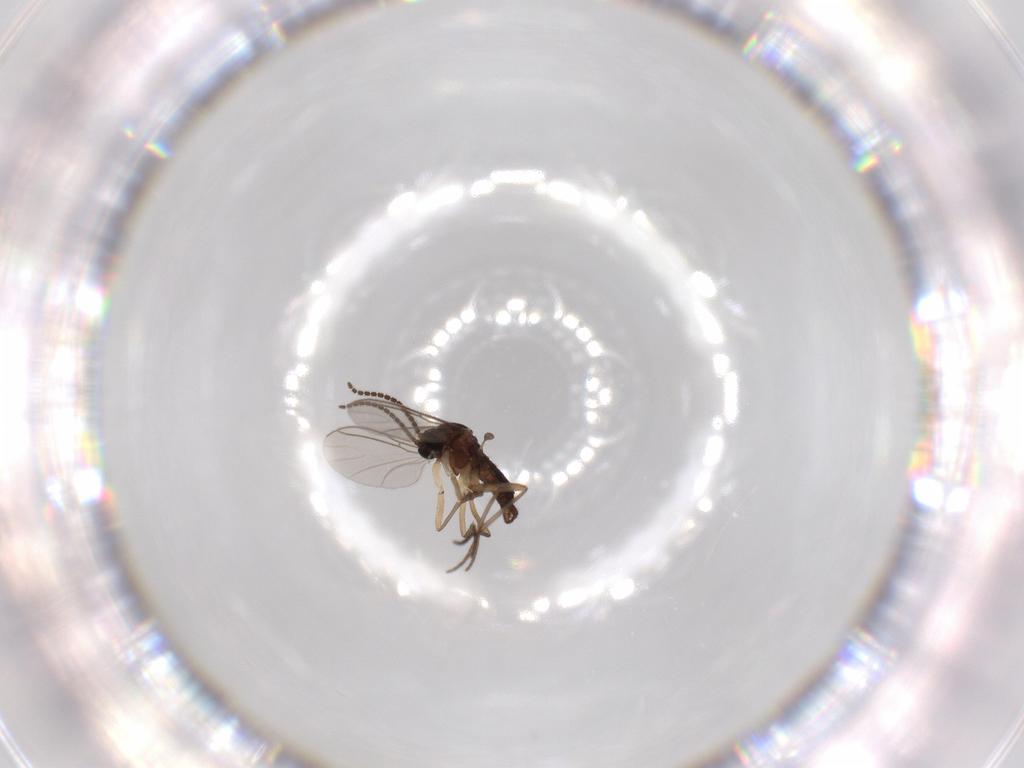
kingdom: Animalia
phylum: Arthropoda
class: Insecta
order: Diptera
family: Sciaridae
